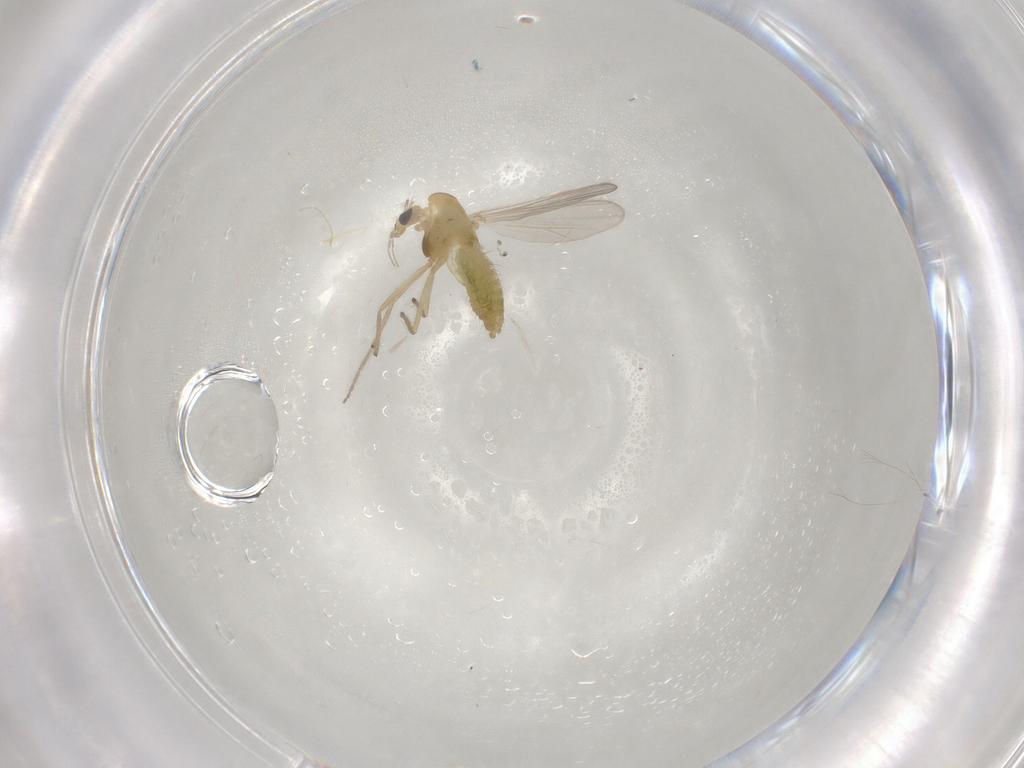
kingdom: Animalia
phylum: Arthropoda
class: Insecta
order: Diptera
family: Chironomidae
